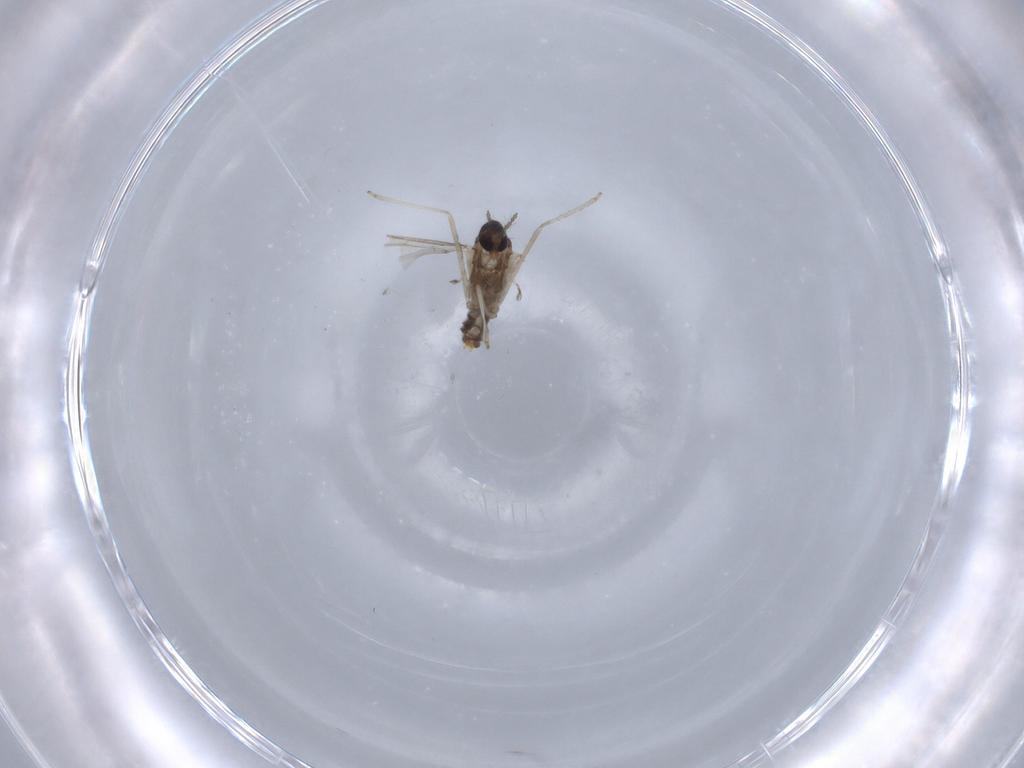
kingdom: Animalia
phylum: Arthropoda
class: Insecta
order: Diptera
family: Cecidomyiidae
